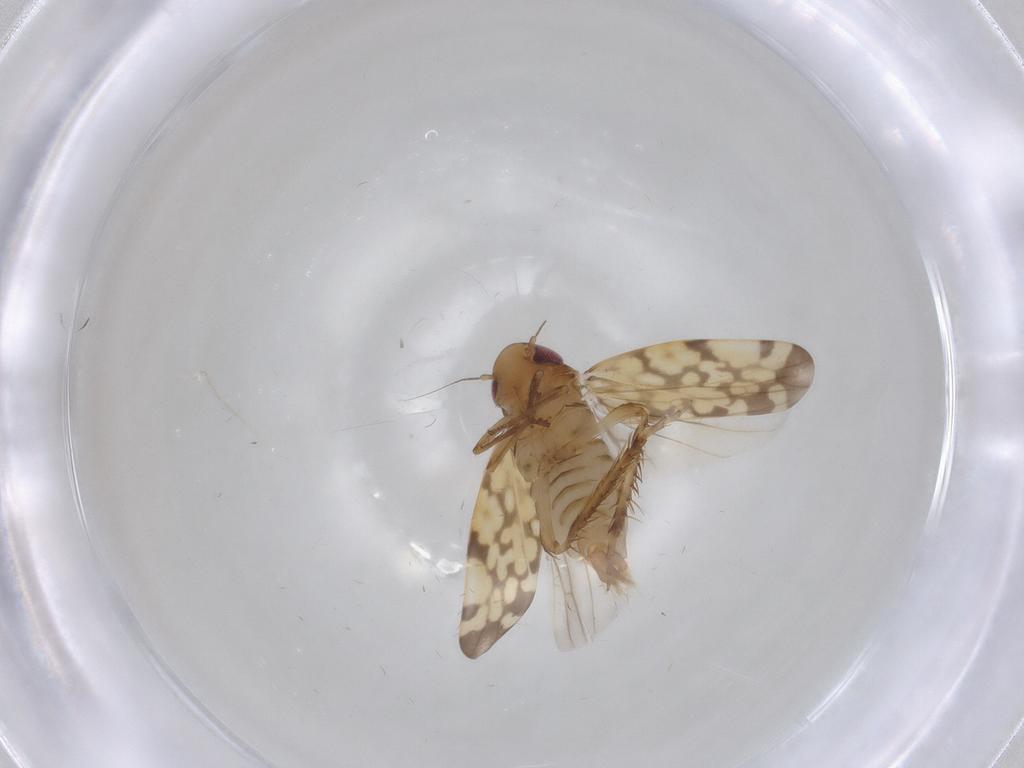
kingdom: Animalia
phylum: Arthropoda
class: Insecta
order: Hemiptera
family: Cicadellidae
